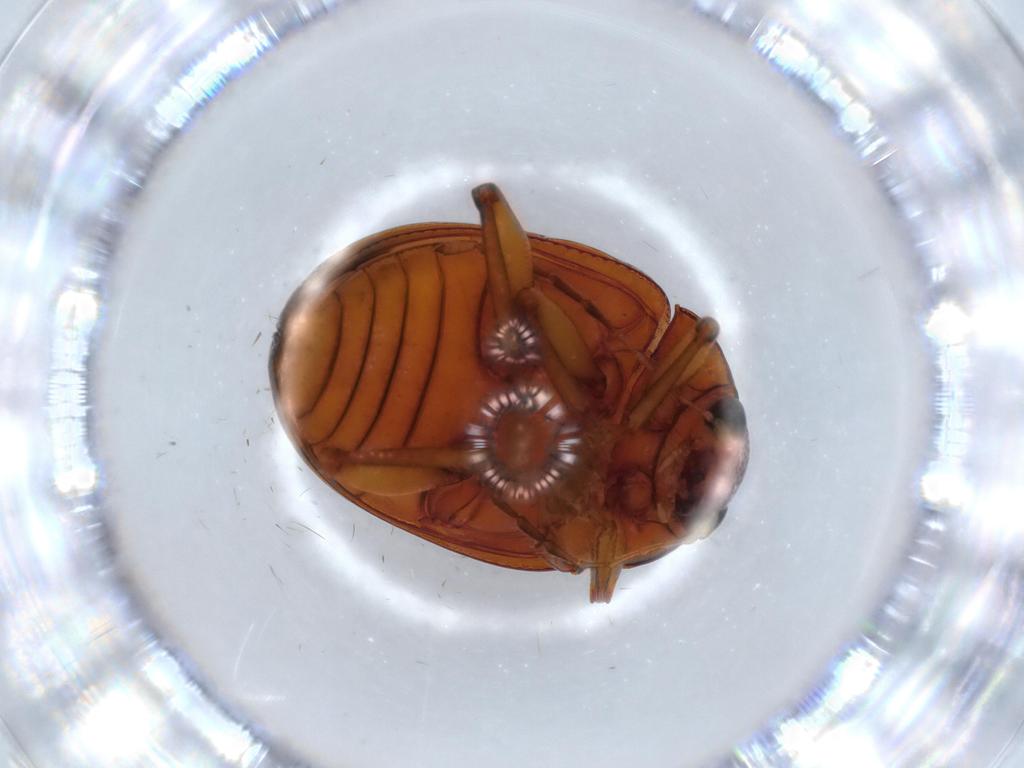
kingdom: Animalia
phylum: Arthropoda
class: Insecta
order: Coleoptera
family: Chrysomelidae
